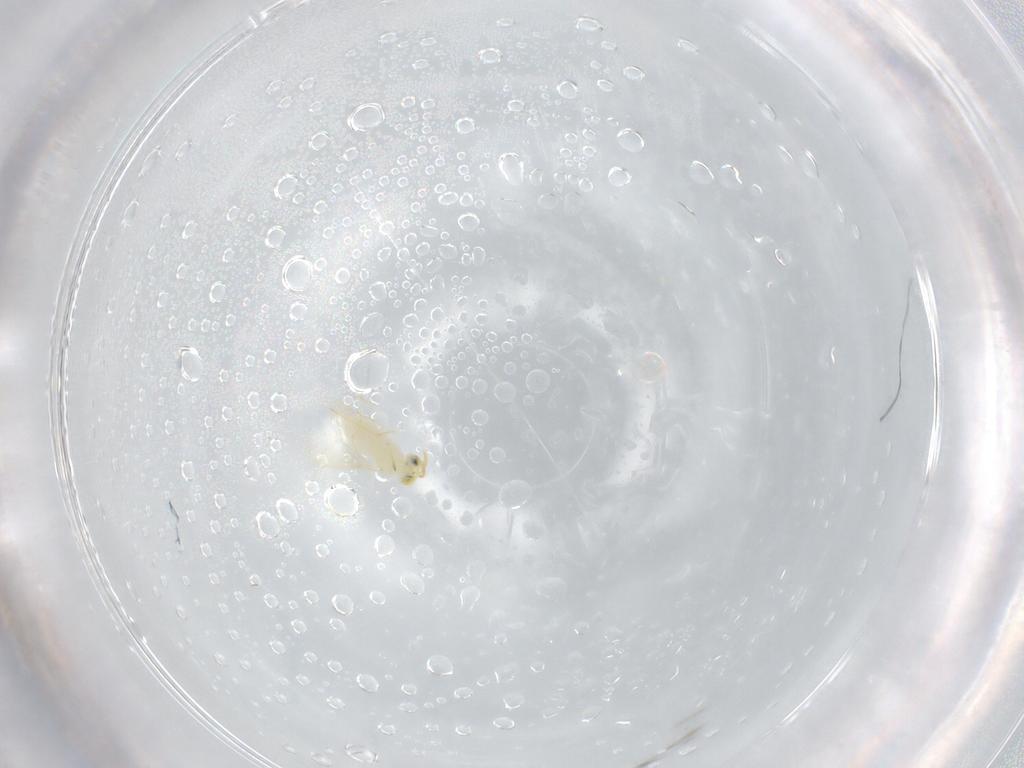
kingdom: Animalia
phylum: Arthropoda
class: Insecta
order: Hymenoptera
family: Aphelinidae
